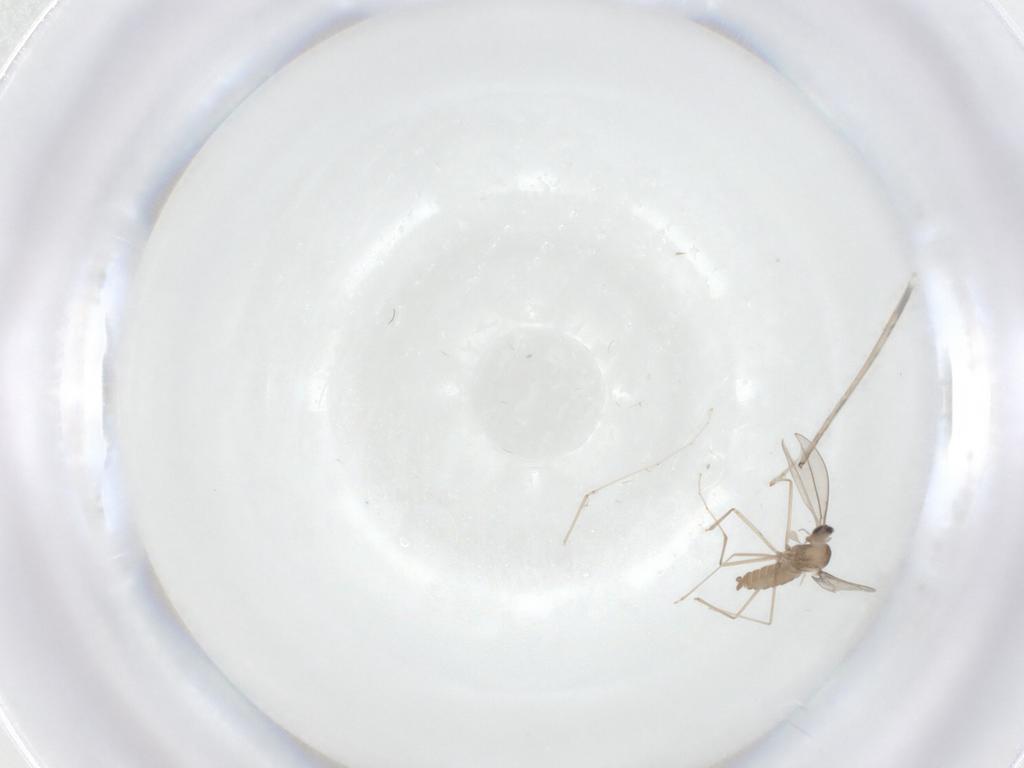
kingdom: Animalia
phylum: Arthropoda
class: Insecta
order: Diptera
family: Cecidomyiidae
